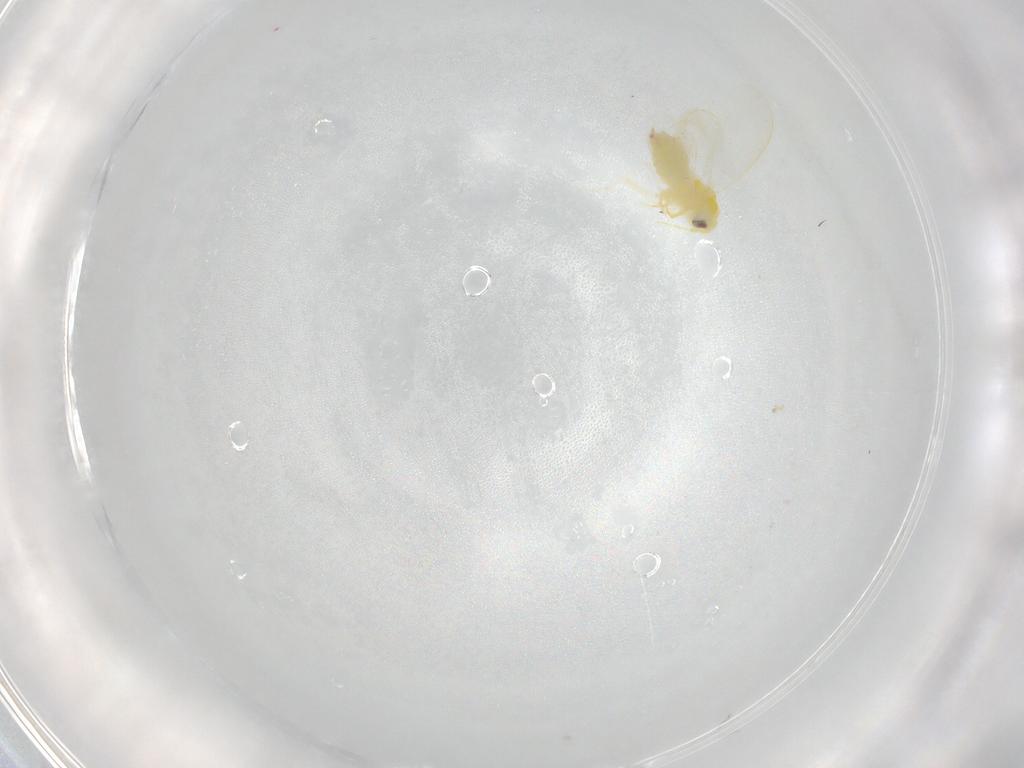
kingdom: Animalia
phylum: Arthropoda
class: Insecta
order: Hemiptera
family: Aleyrodidae
